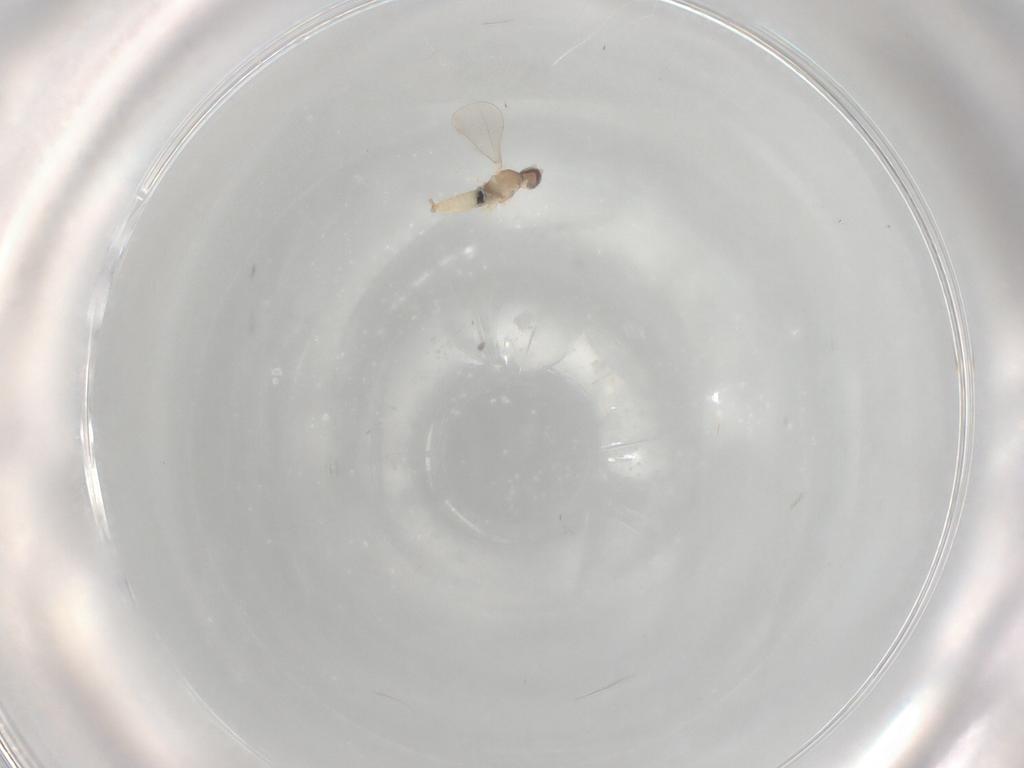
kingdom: Animalia
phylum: Arthropoda
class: Insecta
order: Diptera
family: Cecidomyiidae
